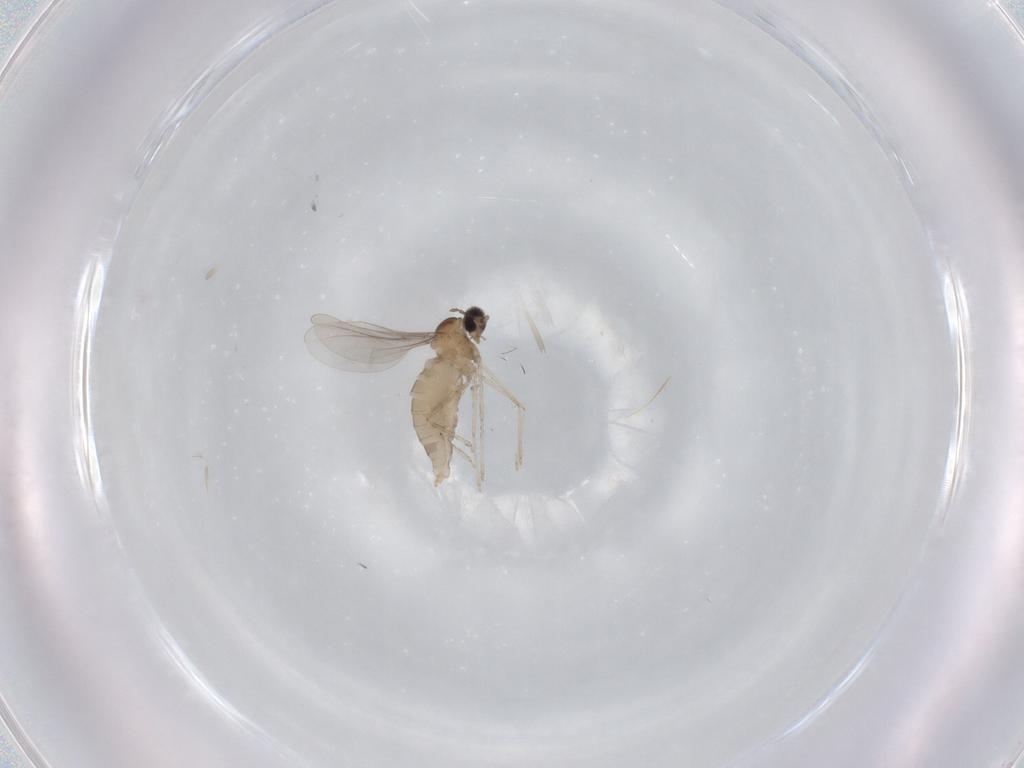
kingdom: Animalia
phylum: Arthropoda
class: Insecta
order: Diptera
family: Cecidomyiidae
